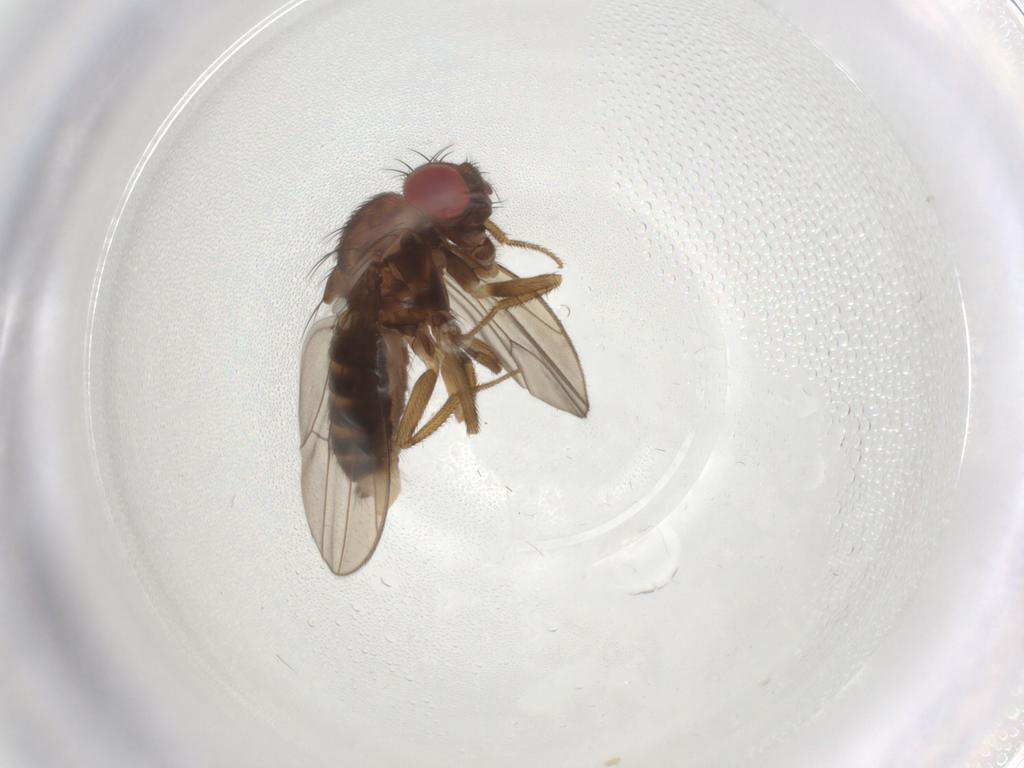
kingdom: Animalia
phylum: Arthropoda
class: Insecta
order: Diptera
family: Drosophilidae
